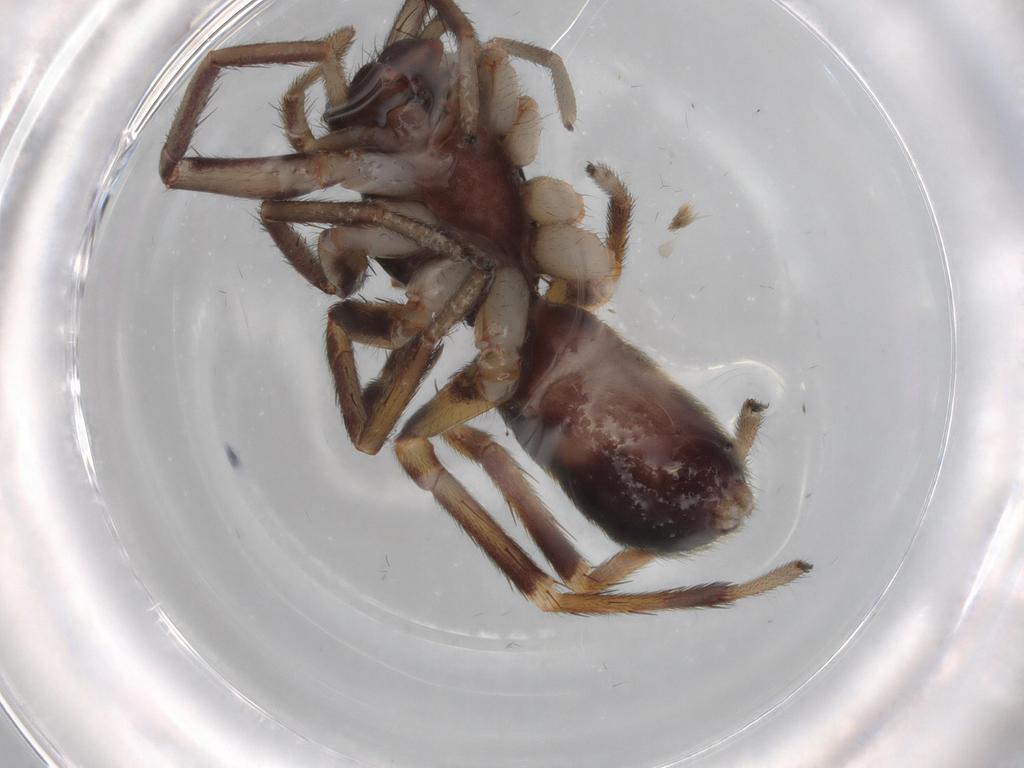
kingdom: Animalia
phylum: Arthropoda
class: Arachnida
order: Araneae
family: Corinnidae
